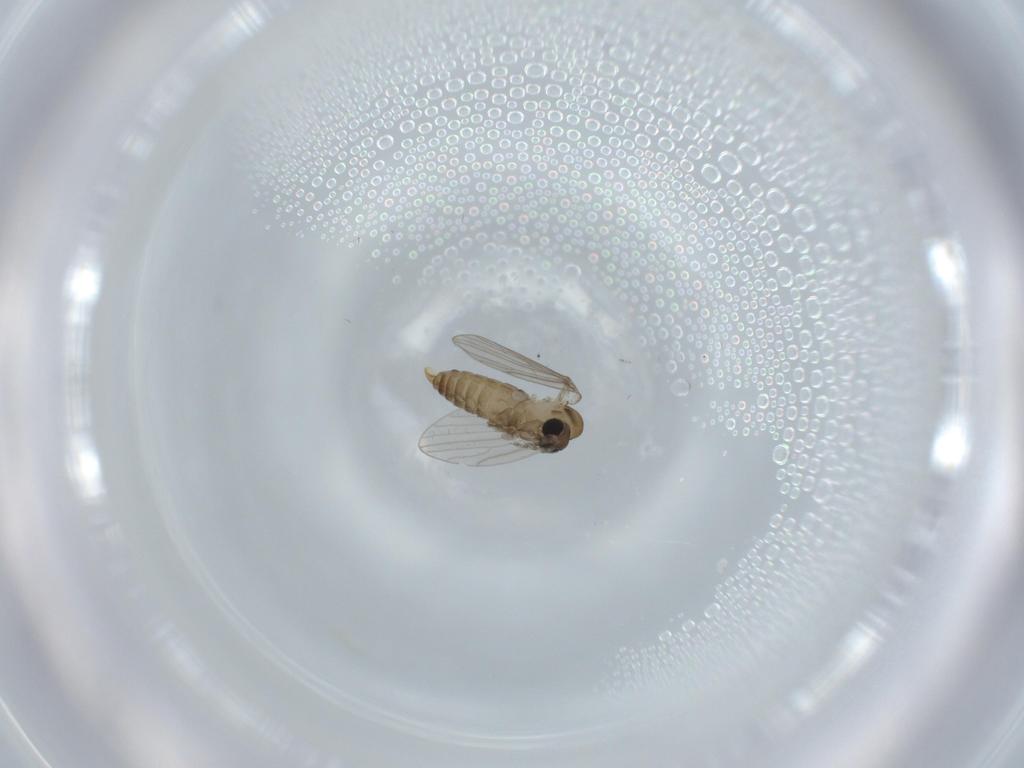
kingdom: Animalia
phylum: Arthropoda
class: Insecta
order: Diptera
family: Psychodidae
